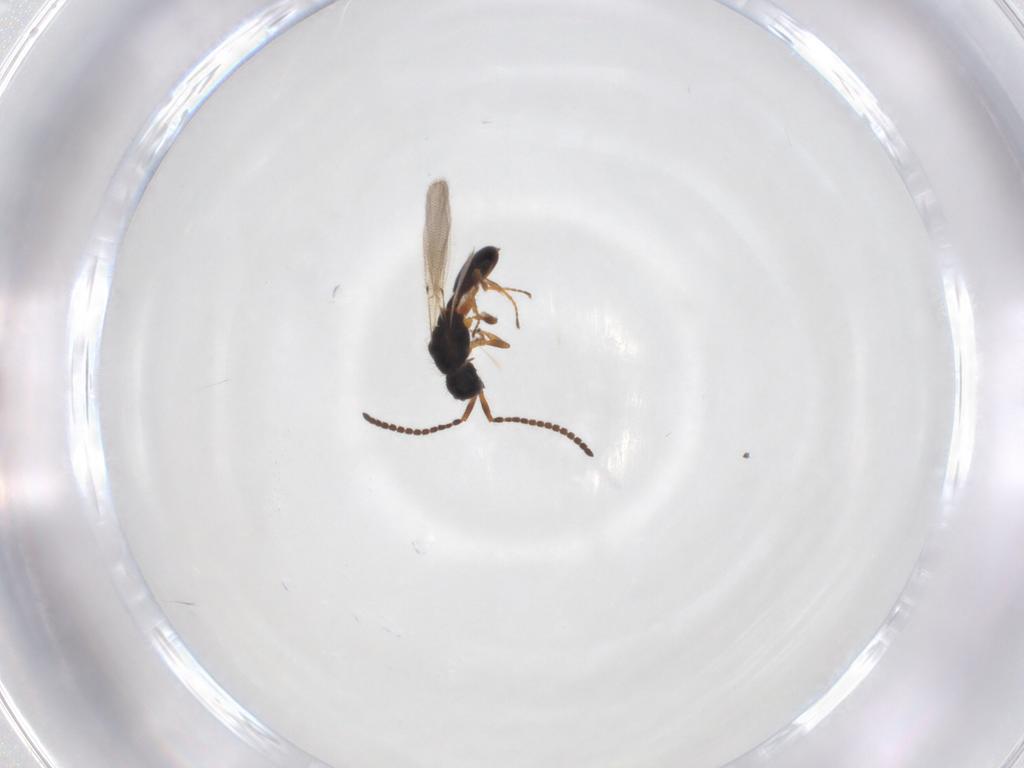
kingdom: Animalia
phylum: Arthropoda
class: Insecta
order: Hymenoptera
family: Diapriidae
